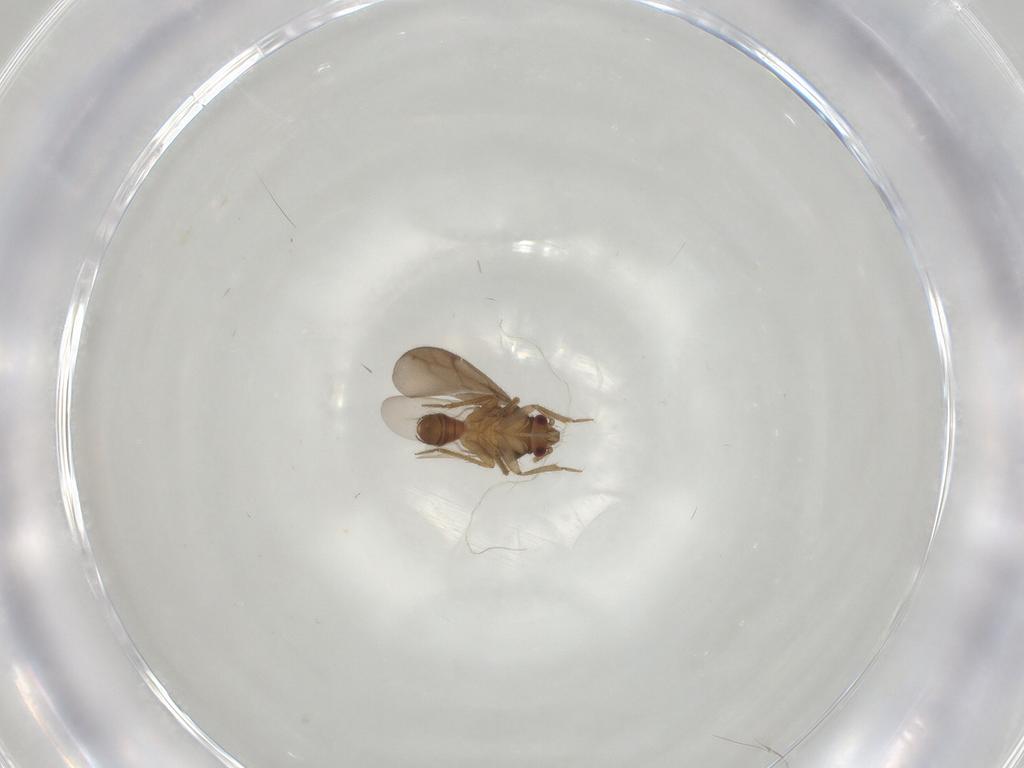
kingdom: Animalia
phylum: Arthropoda
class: Insecta
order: Hemiptera
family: Ceratocombidae
